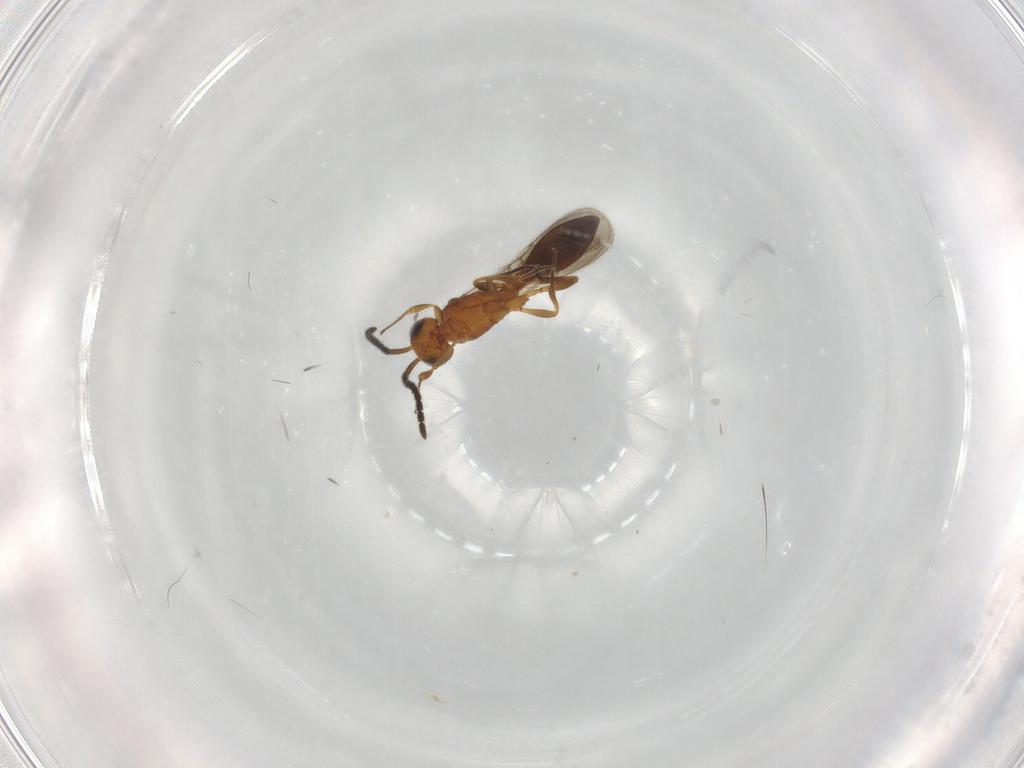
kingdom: Animalia
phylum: Arthropoda
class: Insecta
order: Hymenoptera
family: Scelionidae
